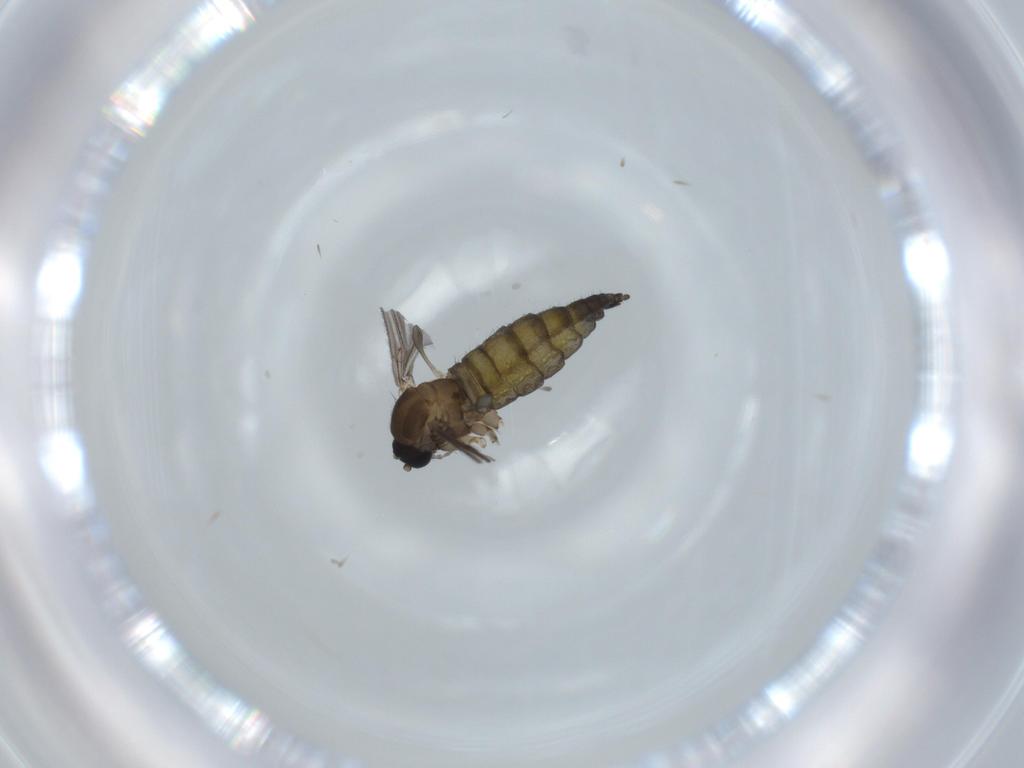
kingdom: Animalia
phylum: Arthropoda
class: Insecta
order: Diptera
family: Sciaridae
